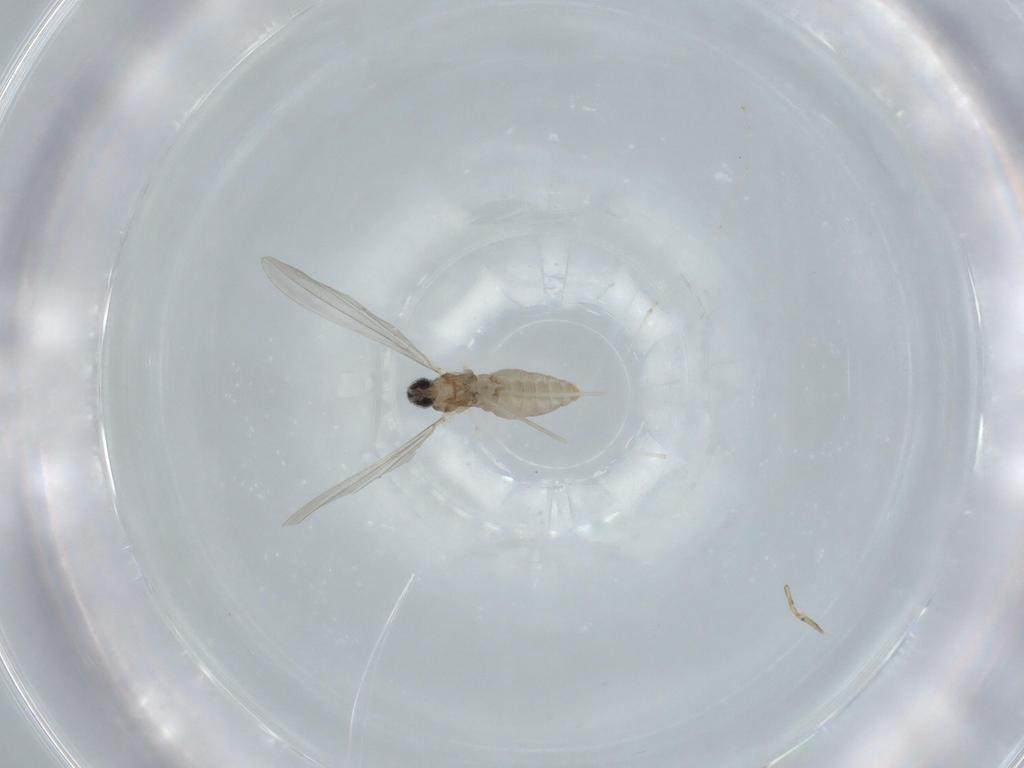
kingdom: Animalia
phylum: Arthropoda
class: Insecta
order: Diptera
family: Cecidomyiidae
